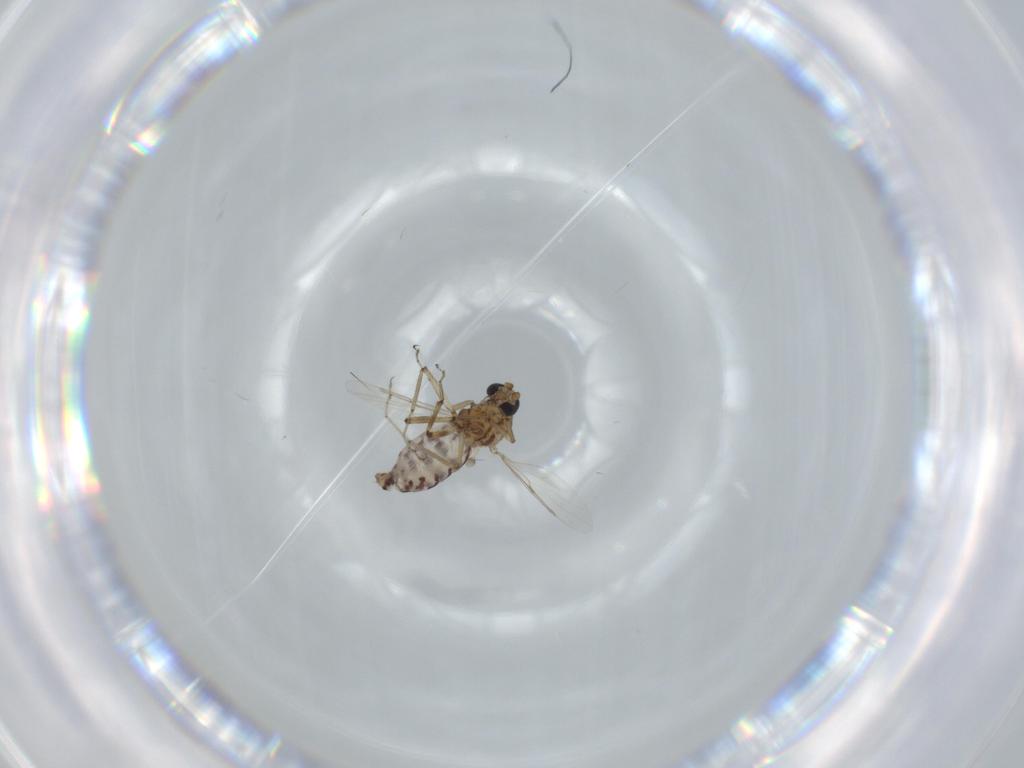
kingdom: Animalia
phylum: Arthropoda
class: Insecta
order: Diptera
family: Ceratopogonidae
